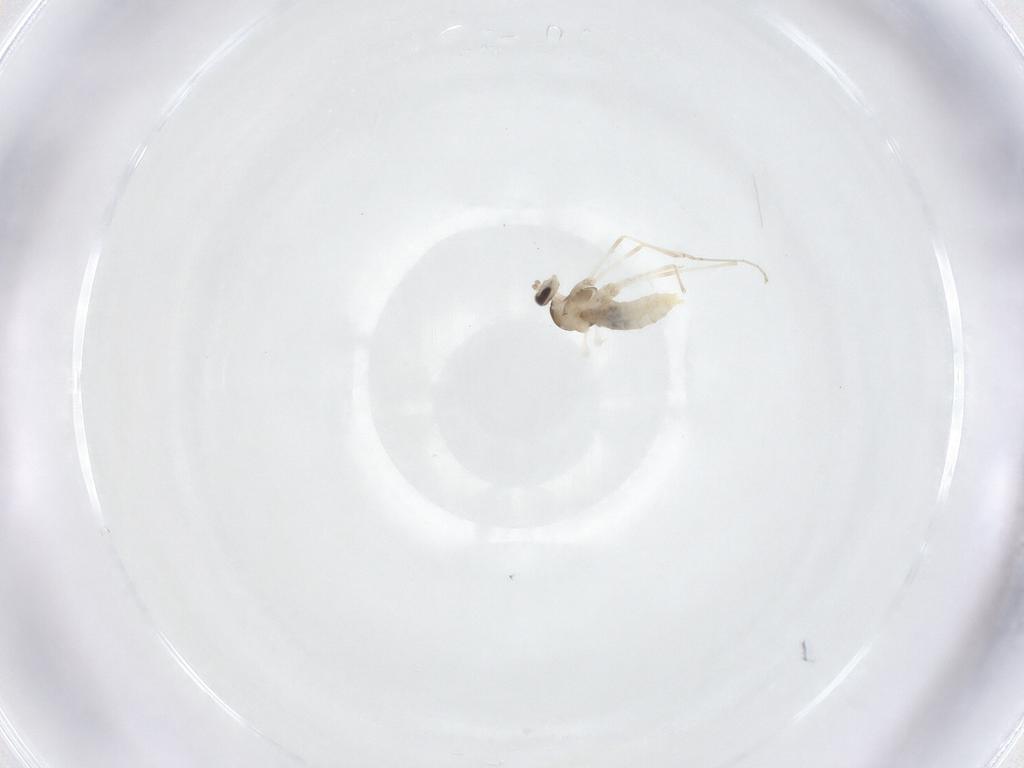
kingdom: Animalia
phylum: Arthropoda
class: Insecta
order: Diptera
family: Cecidomyiidae
